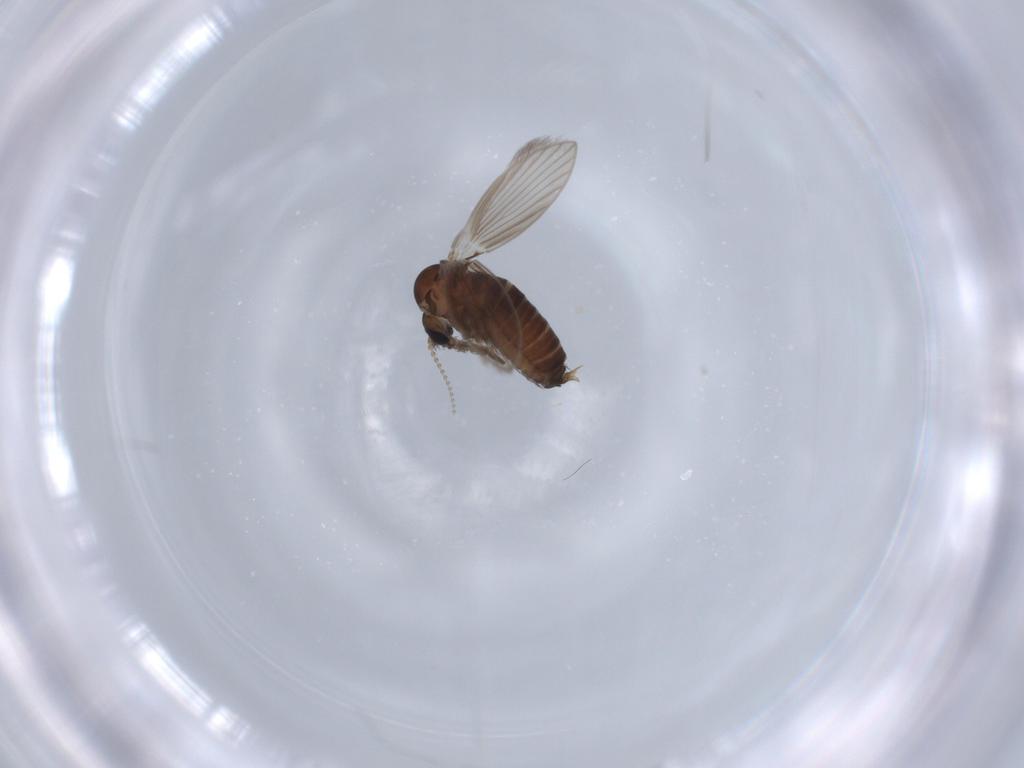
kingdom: Animalia
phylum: Arthropoda
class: Insecta
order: Diptera
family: Psychodidae
